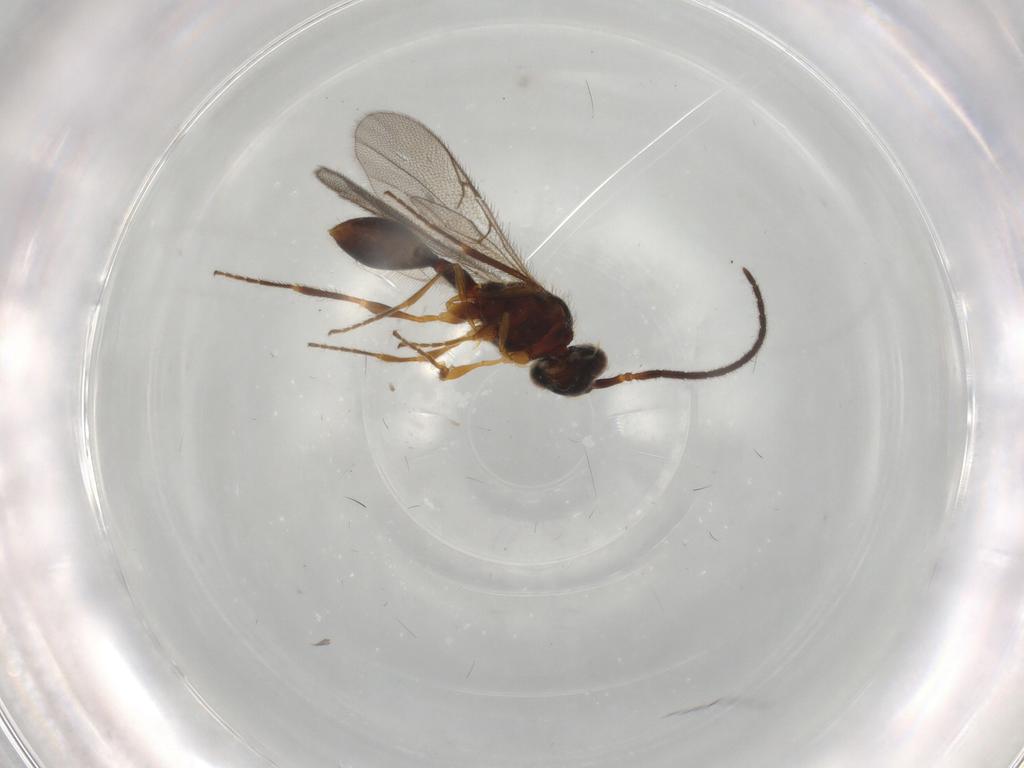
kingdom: Animalia
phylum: Arthropoda
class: Insecta
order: Hymenoptera
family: Diapriidae
